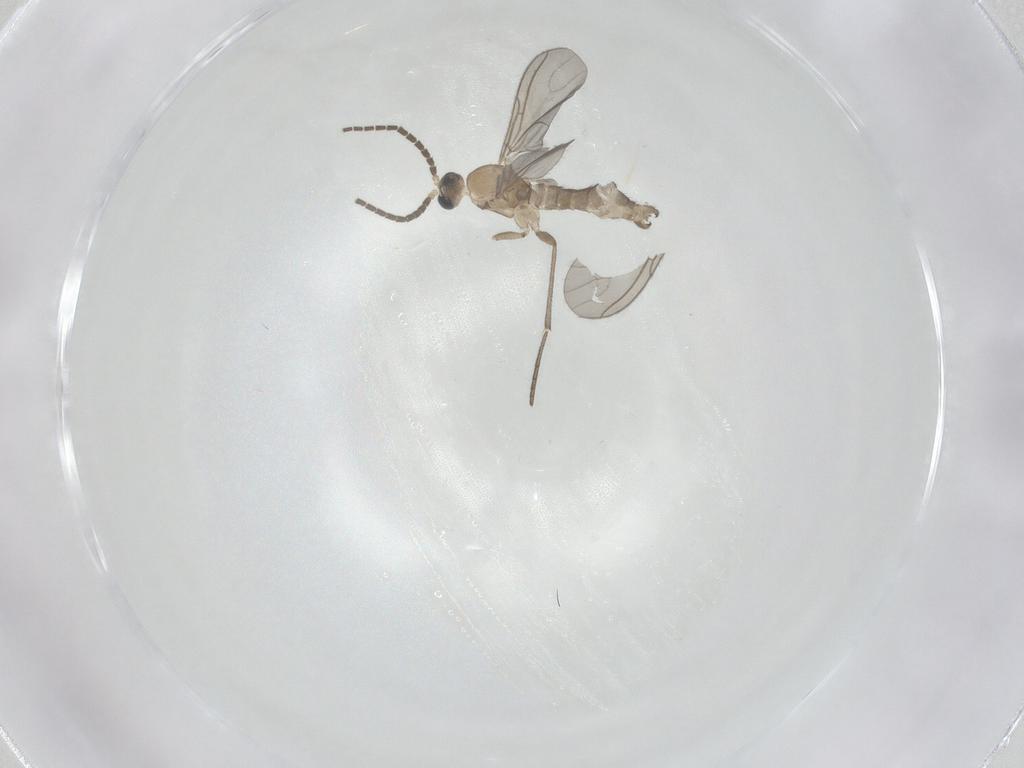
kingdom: Animalia
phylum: Arthropoda
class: Insecta
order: Diptera
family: Sciaridae
